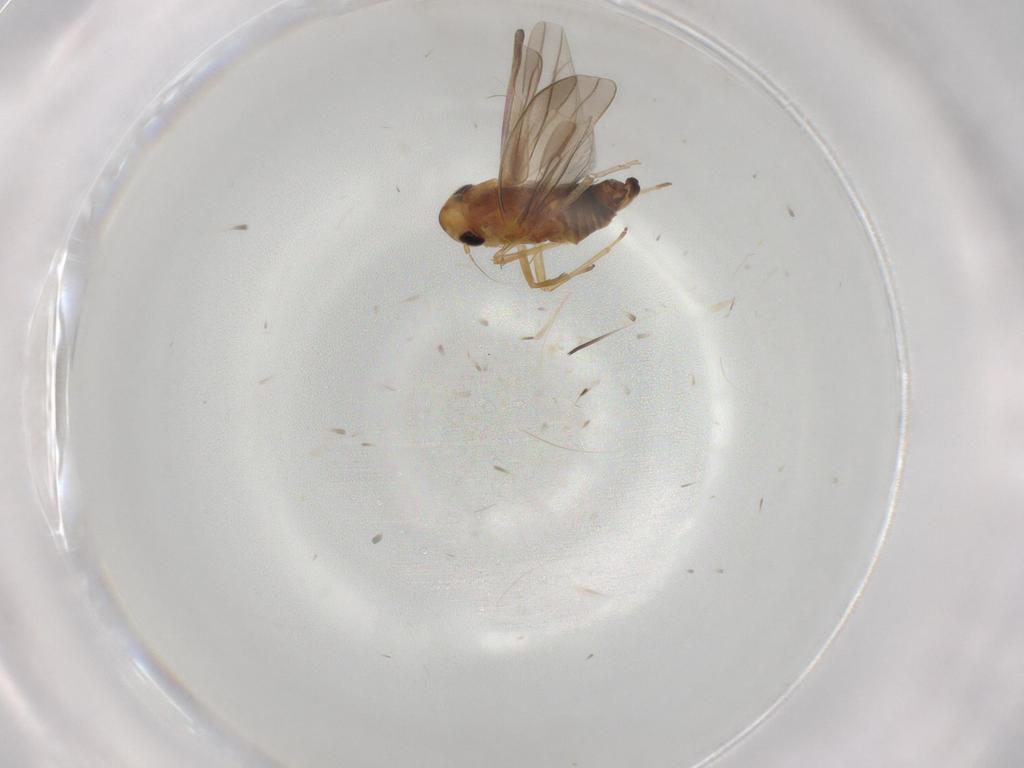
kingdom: Animalia
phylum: Arthropoda
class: Insecta
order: Hemiptera
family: Cicadellidae
